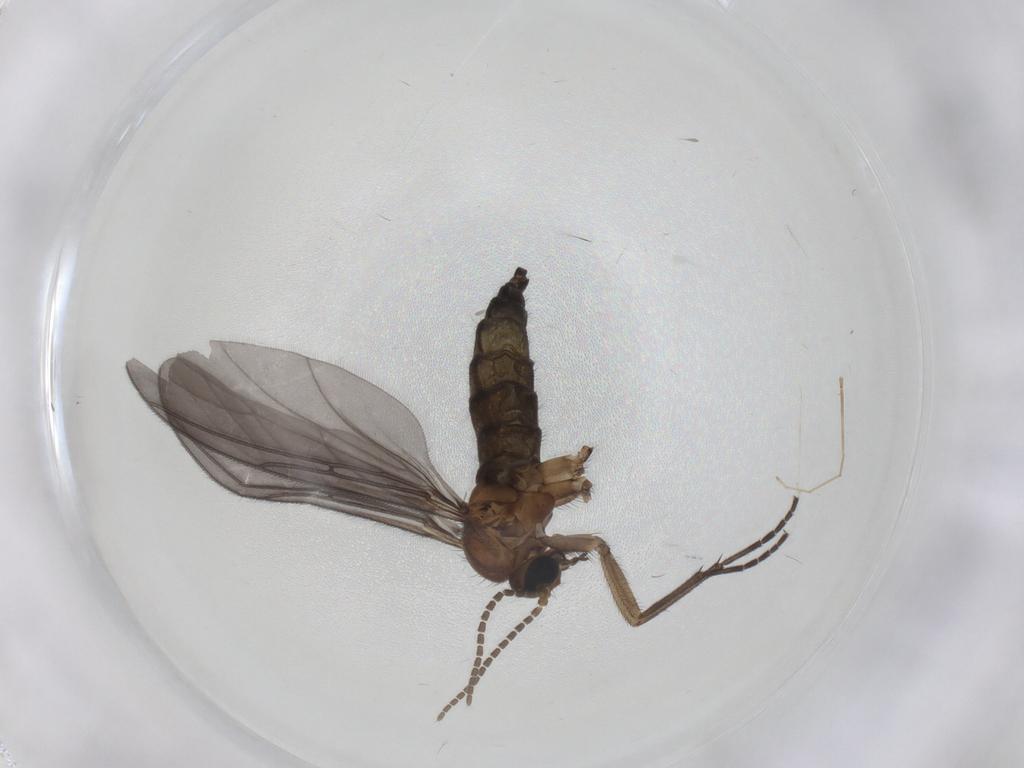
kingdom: Animalia
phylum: Arthropoda
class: Insecta
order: Diptera
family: Cecidomyiidae
